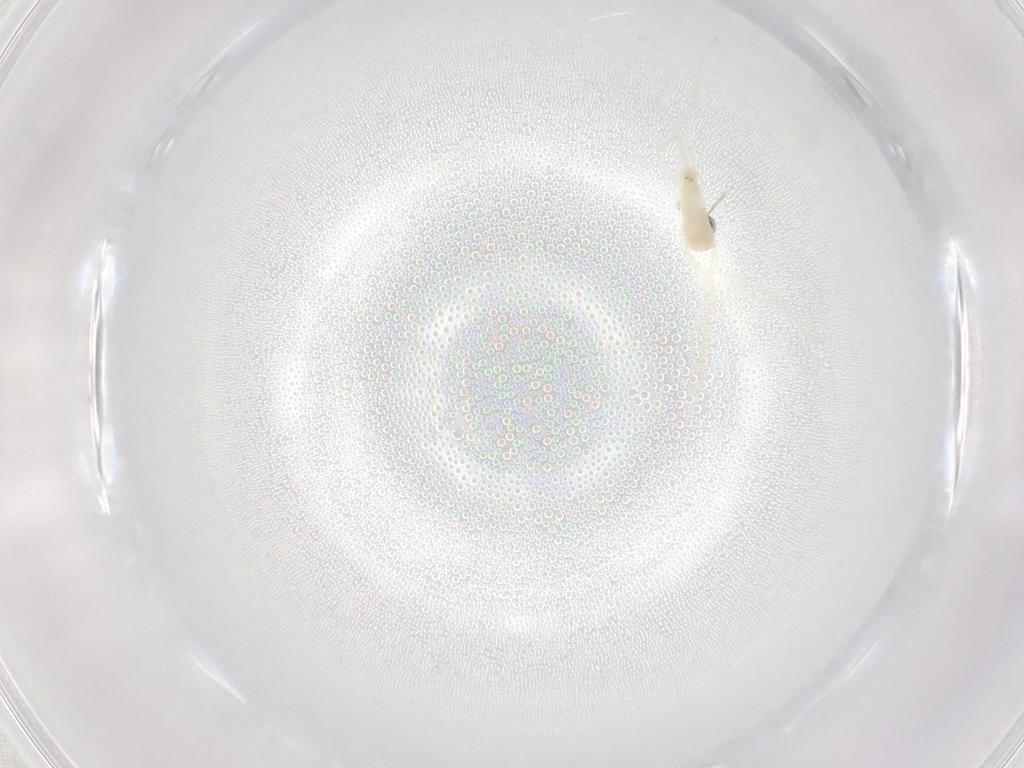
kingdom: Animalia
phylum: Arthropoda
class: Insecta
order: Diptera
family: Cecidomyiidae
